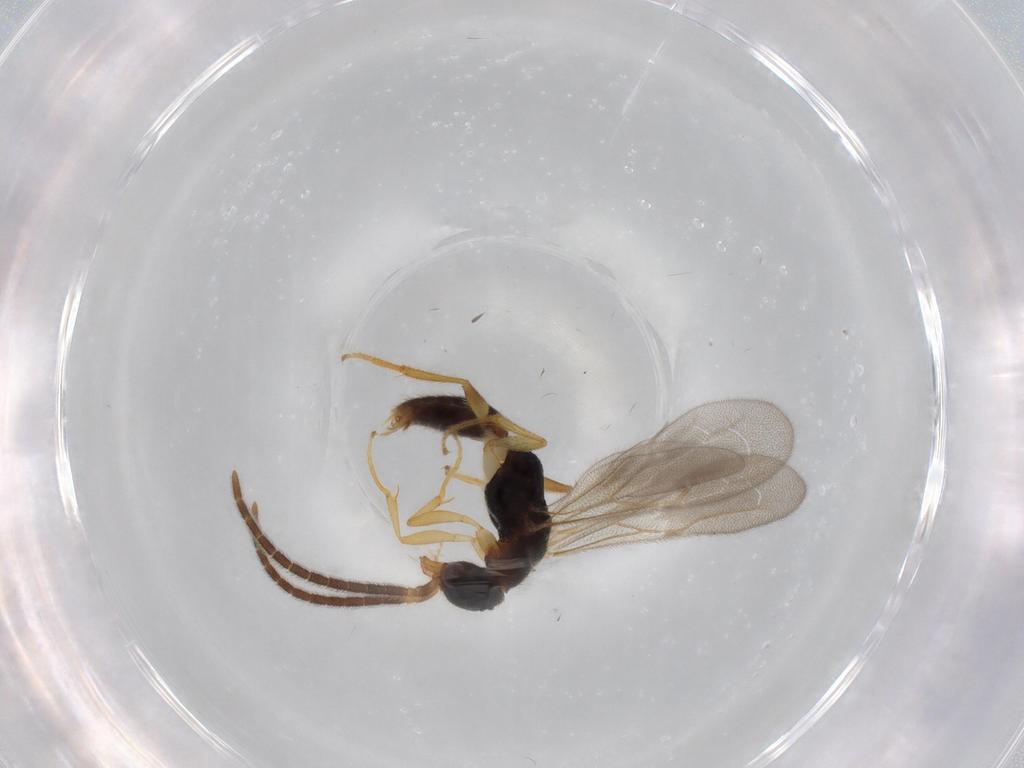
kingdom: Animalia
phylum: Arthropoda
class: Insecta
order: Hymenoptera
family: Bethylidae
